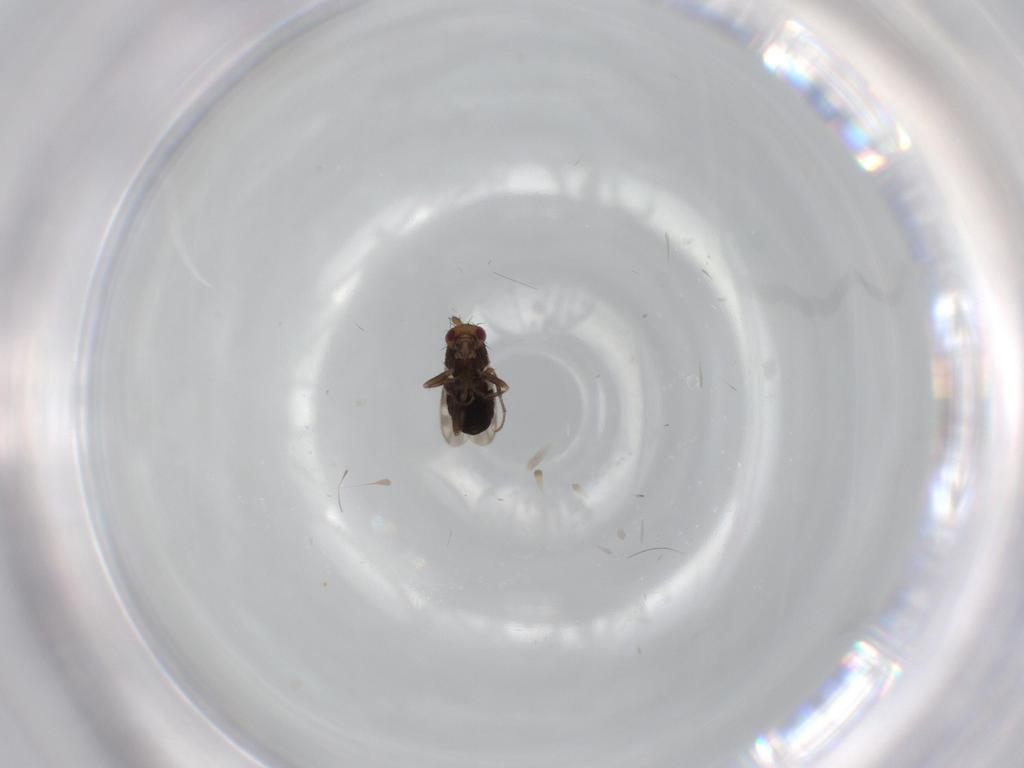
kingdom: Animalia
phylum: Arthropoda
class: Insecta
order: Diptera
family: Sphaeroceridae
